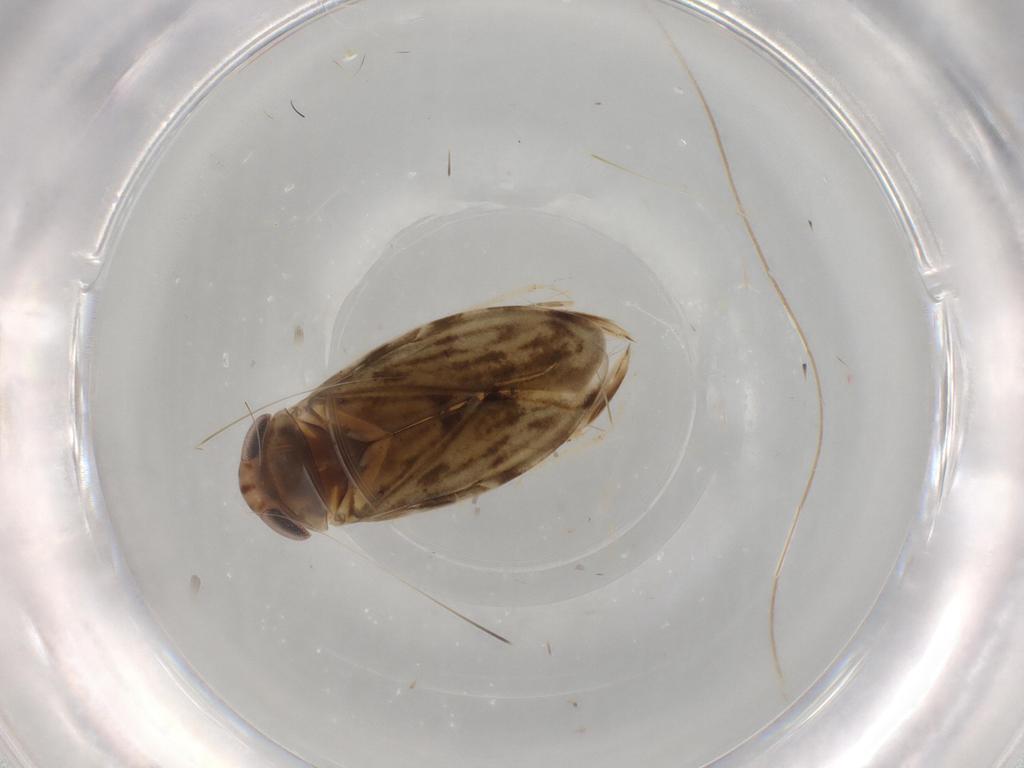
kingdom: Animalia
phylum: Arthropoda
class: Insecta
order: Hemiptera
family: Corixidae
